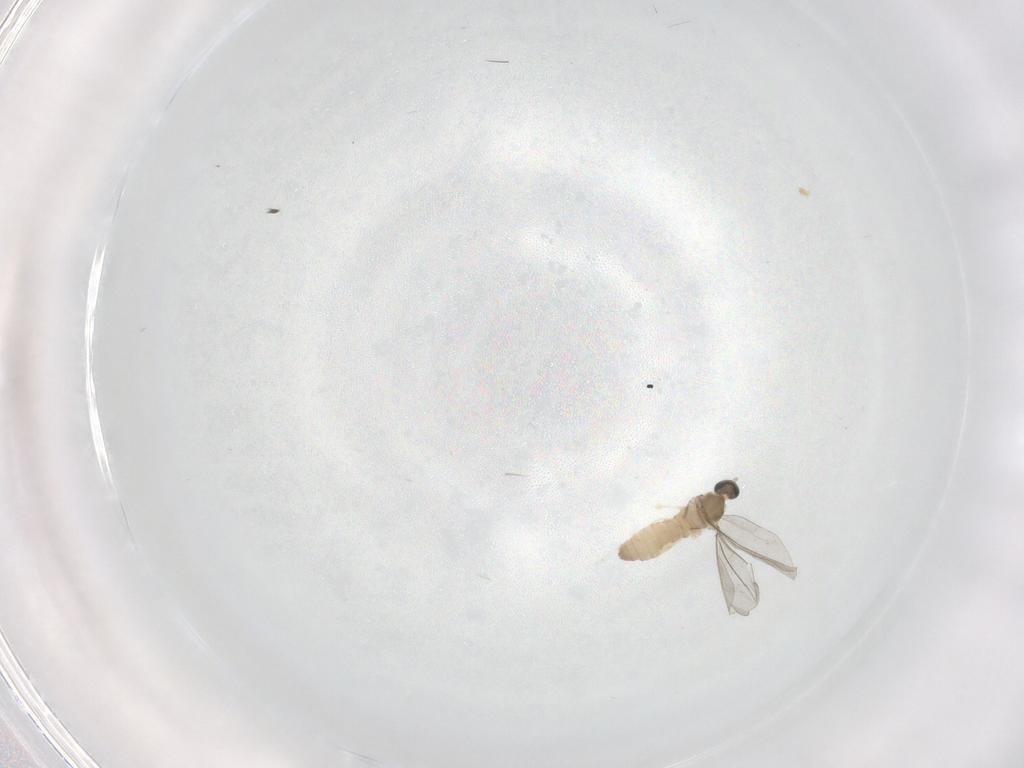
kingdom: Animalia
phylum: Arthropoda
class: Insecta
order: Diptera
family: Cecidomyiidae
